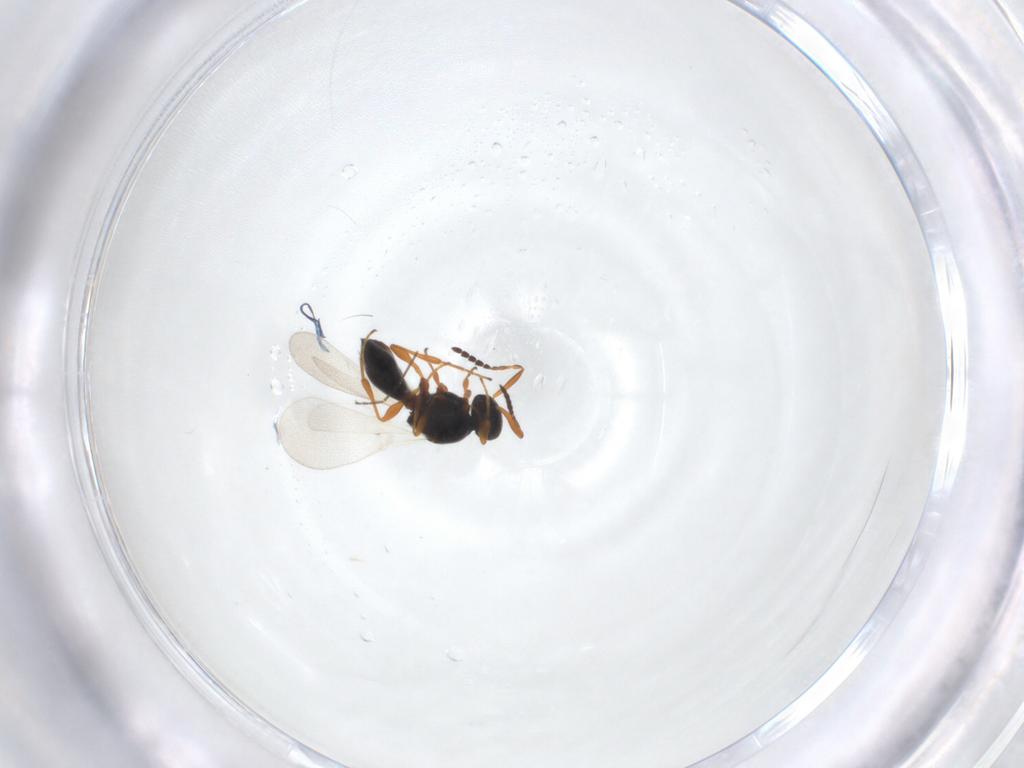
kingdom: Animalia
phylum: Arthropoda
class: Insecta
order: Hymenoptera
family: Platygastridae
